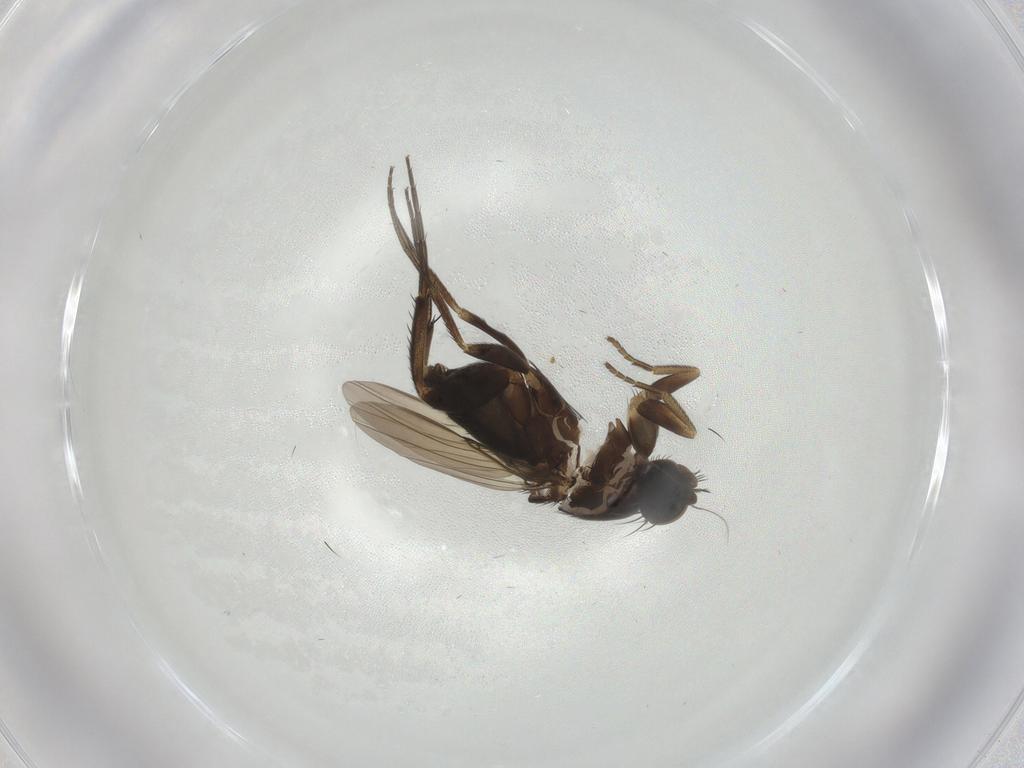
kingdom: Animalia
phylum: Arthropoda
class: Insecta
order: Diptera
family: Phoridae
